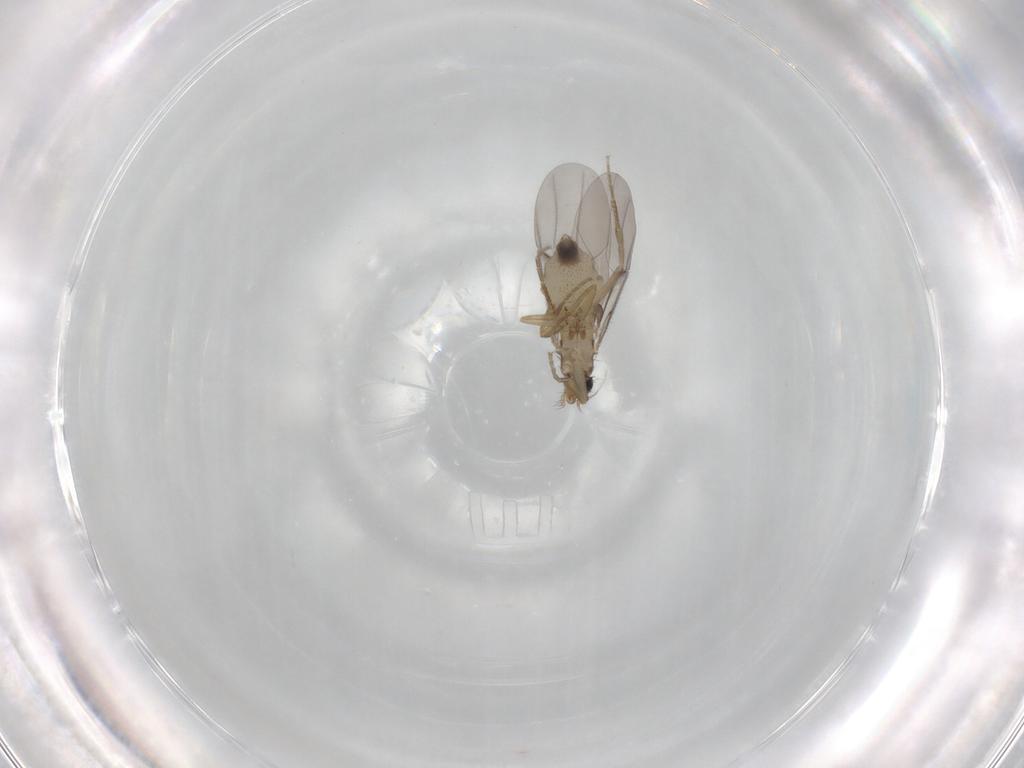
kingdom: Animalia
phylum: Arthropoda
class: Insecta
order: Diptera
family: Phoridae
